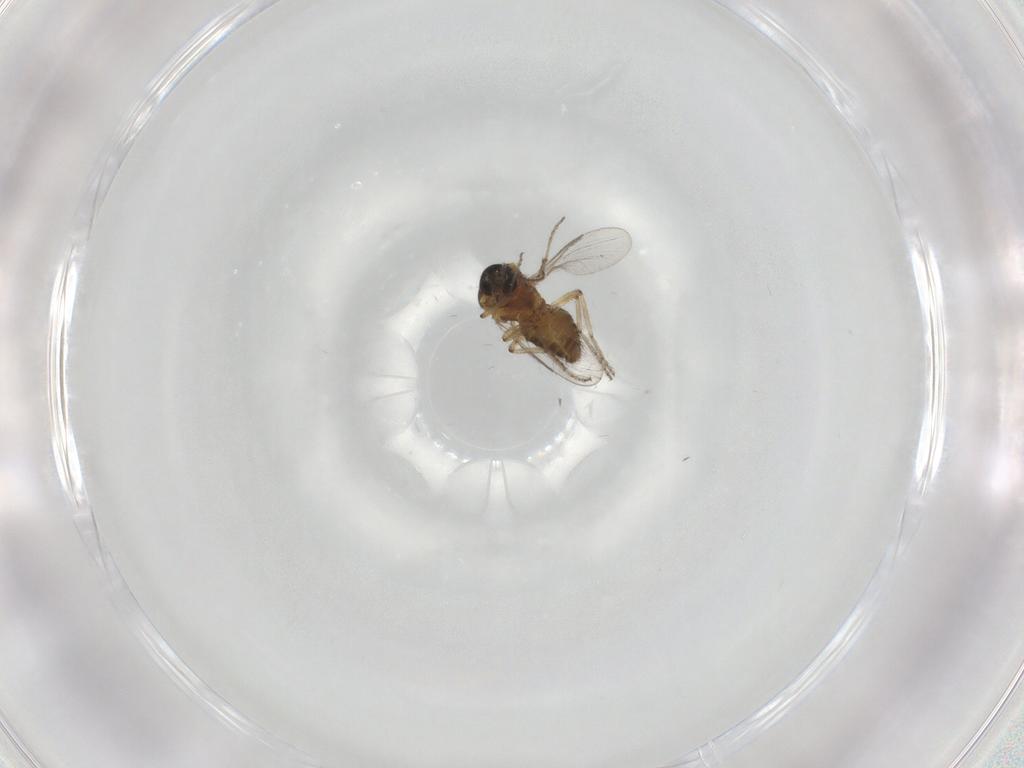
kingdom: Animalia
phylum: Arthropoda
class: Insecta
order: Diptera
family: Ceratopogonidae
